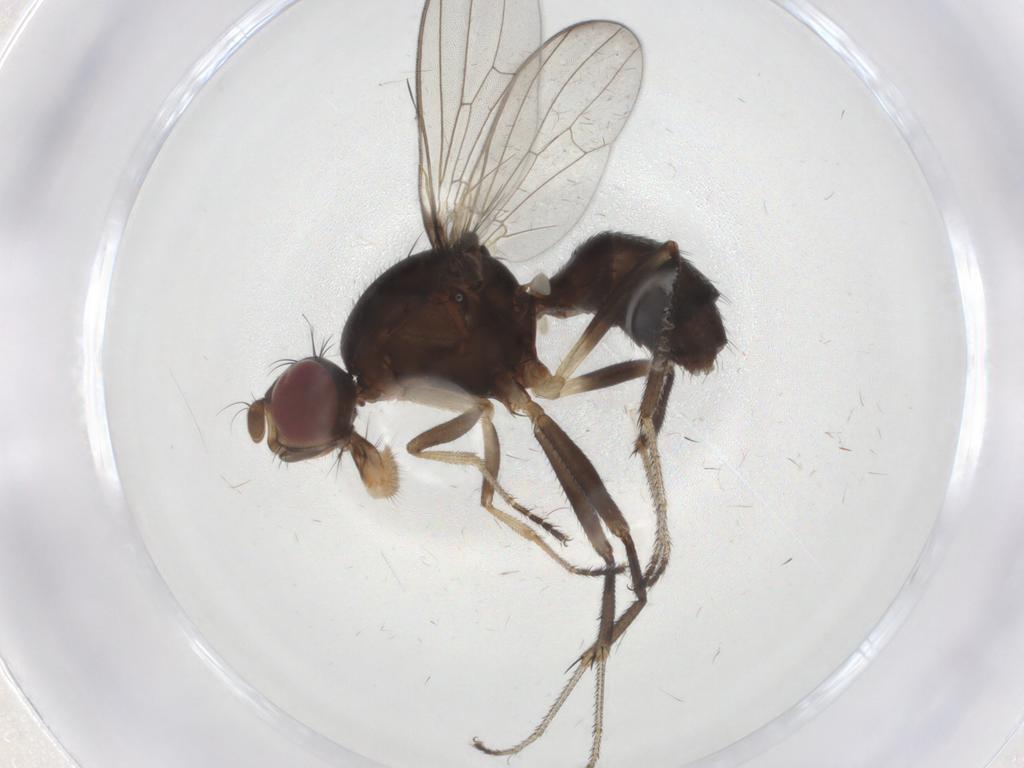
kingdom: Animalia
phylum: Arthropoda
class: Insecta
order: Diptera
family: Sepsidae
